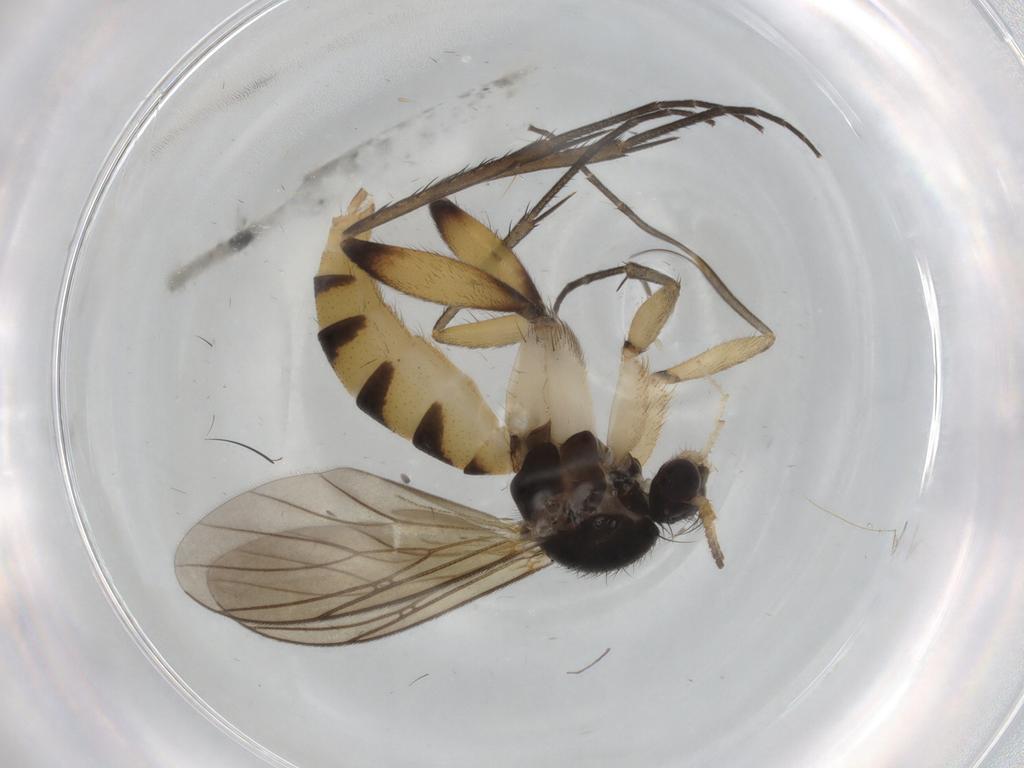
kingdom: Animalia
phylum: Arthropoda
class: Insecta
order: Diptera
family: Mycetophilidae
